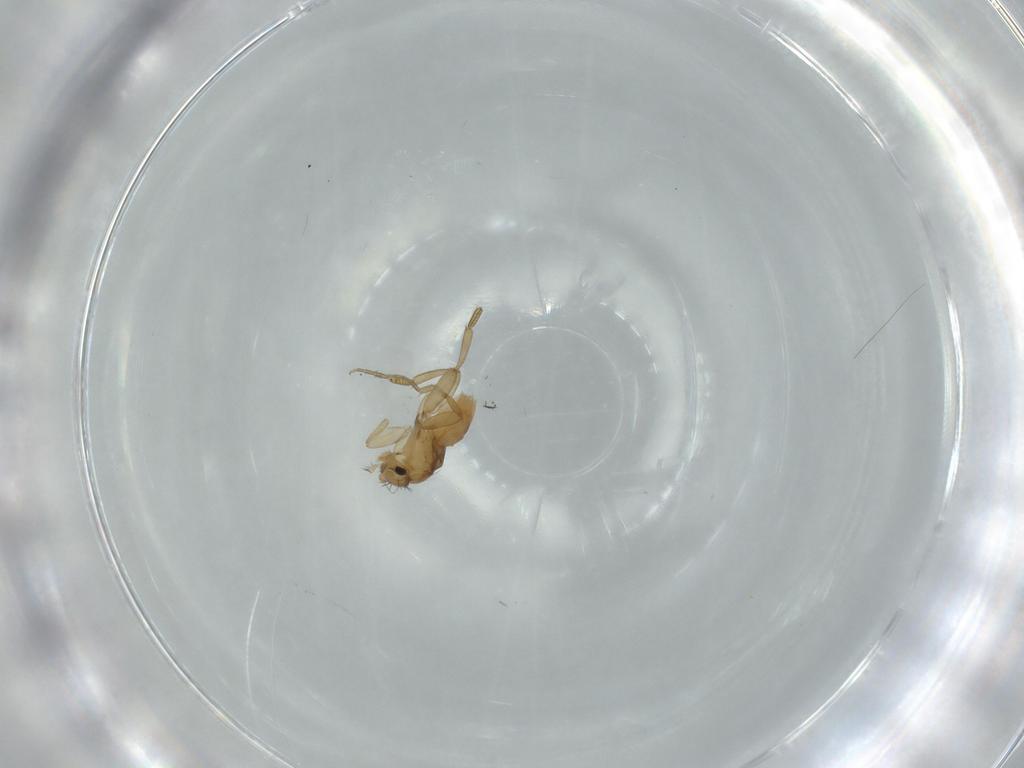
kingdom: Animalia
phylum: Arthropoda
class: Insecta
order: Diptera
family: Phoridae
